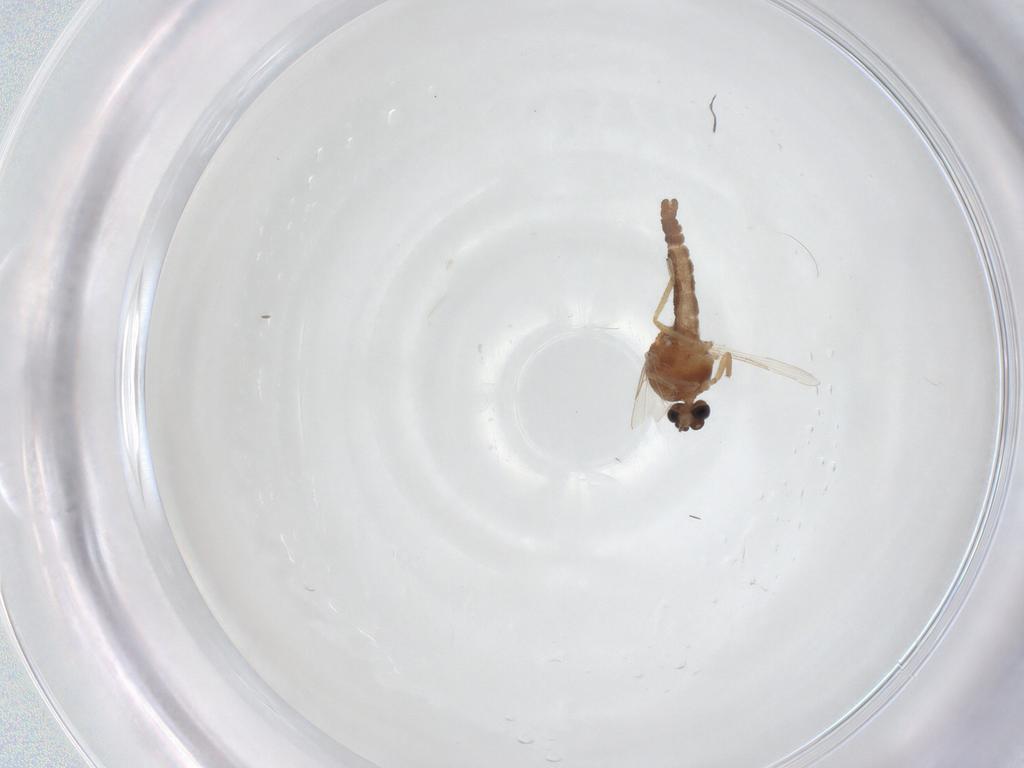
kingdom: Animalia
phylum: Arthropoda
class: Insecta
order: Diptera
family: Ceratopogonidae
